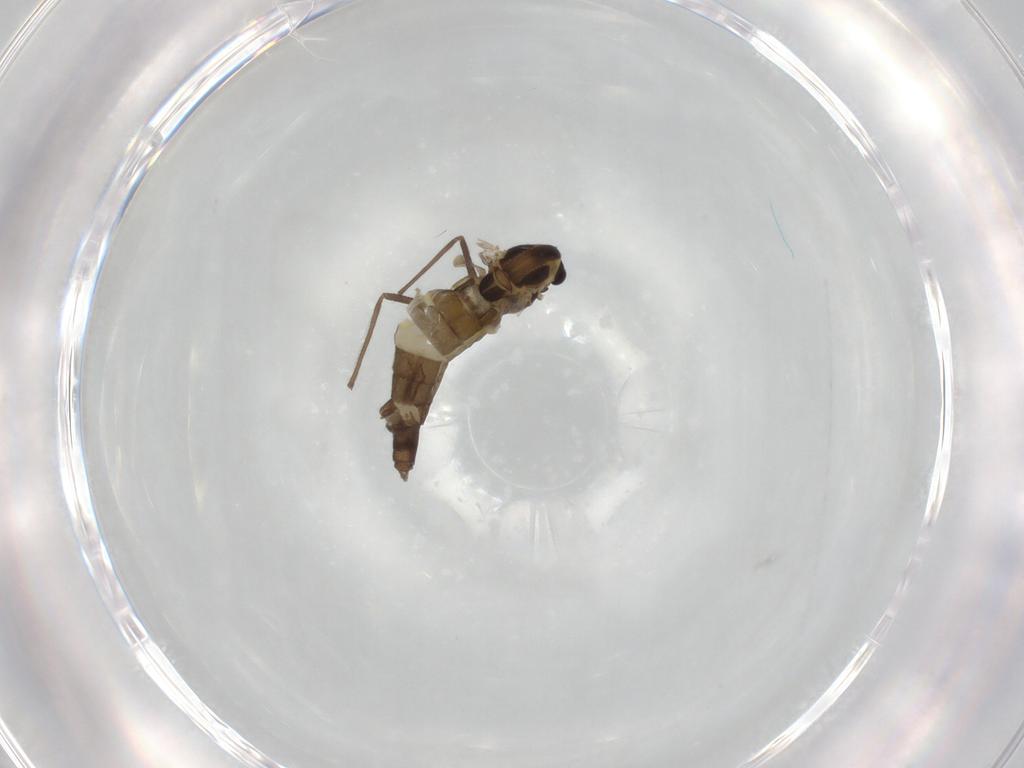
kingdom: Animalia
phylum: Arthropoda
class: Insecta
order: Diptera
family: Chironomidae
